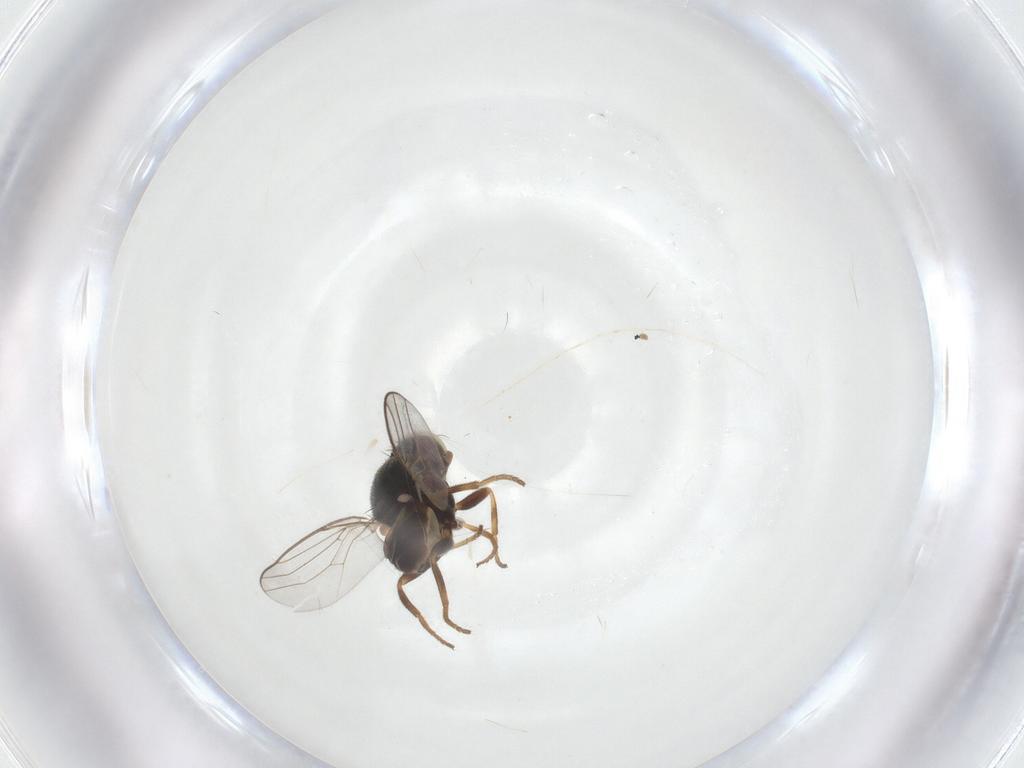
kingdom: Animalia
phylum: Arthropoda
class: Insecta
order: Diptera
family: Chloropidae
